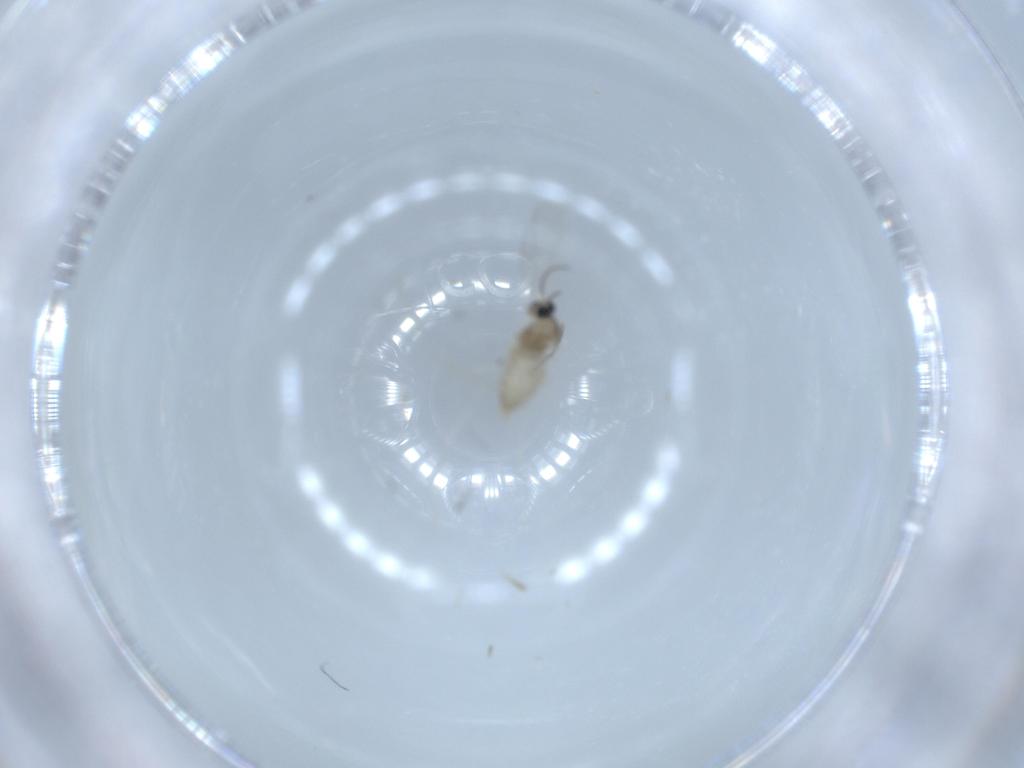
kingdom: Animalia
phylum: Arthropoda
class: Insecta
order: Diptera
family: Cecidomyiidae
